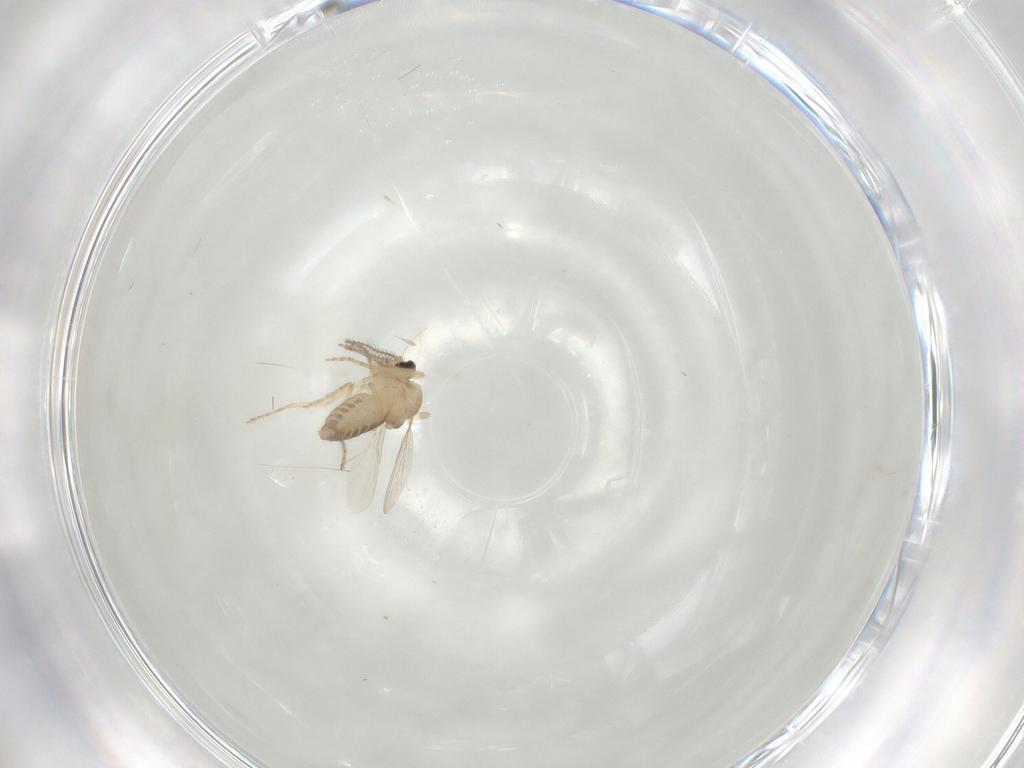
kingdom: Animalia
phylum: Arthropoda
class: Insecta
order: Diptera
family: Ceratopogonidae
